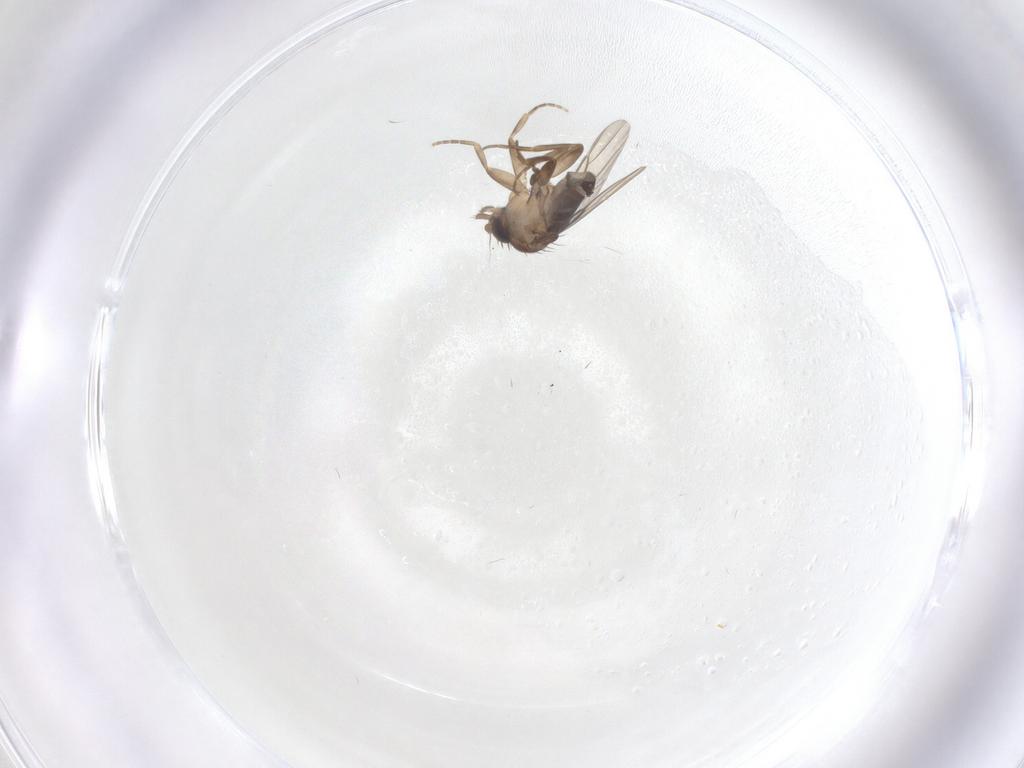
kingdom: Animalia
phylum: Arthropoda
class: Insecta
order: Diptera
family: Phoridae
